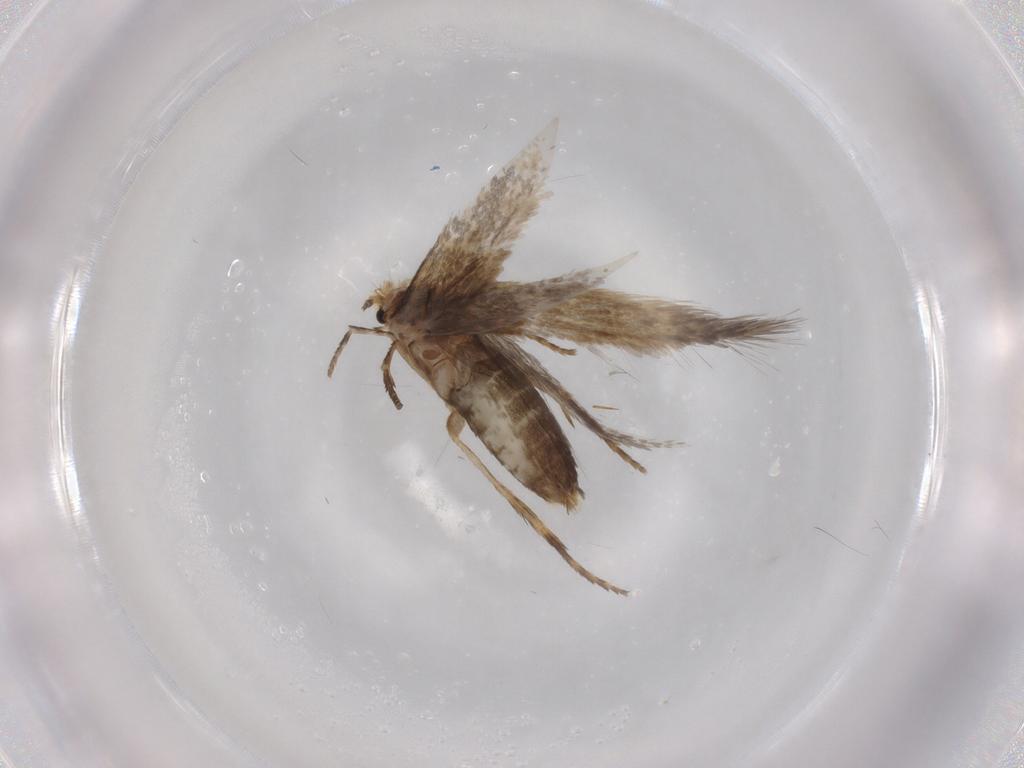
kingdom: Animalia
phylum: Arthropoda
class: Insecta
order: Lepidoptera
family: Nepticulidae
